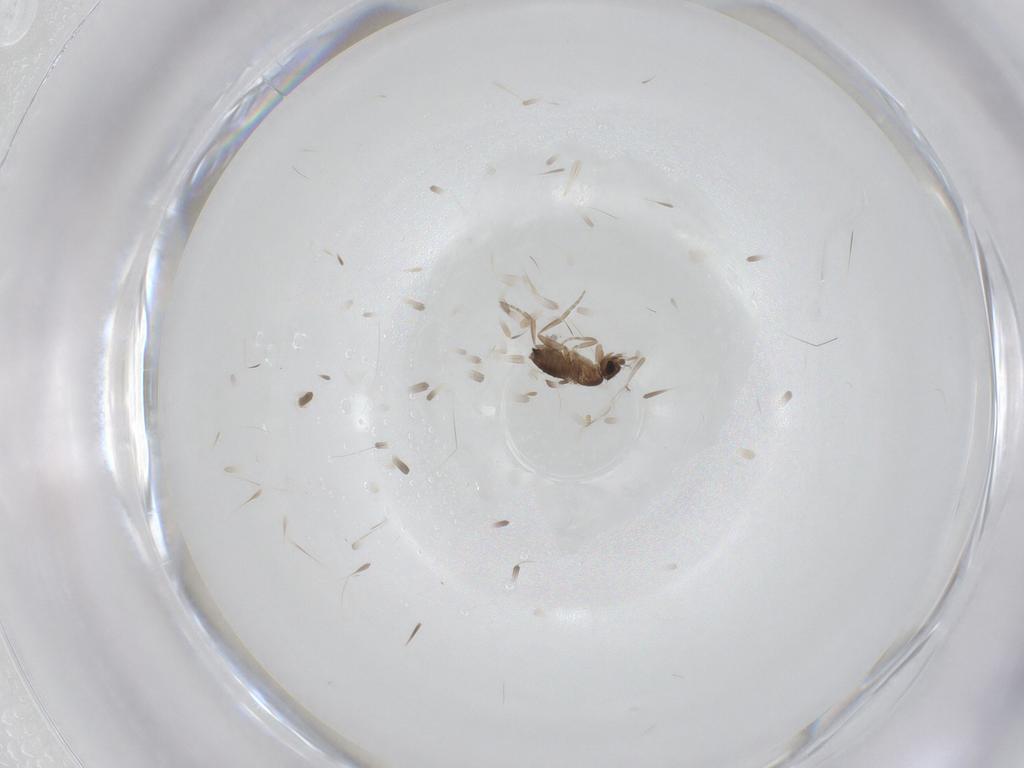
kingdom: Animalia
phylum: Arthropoda
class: Insecta
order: Diptera
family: Phoridae
